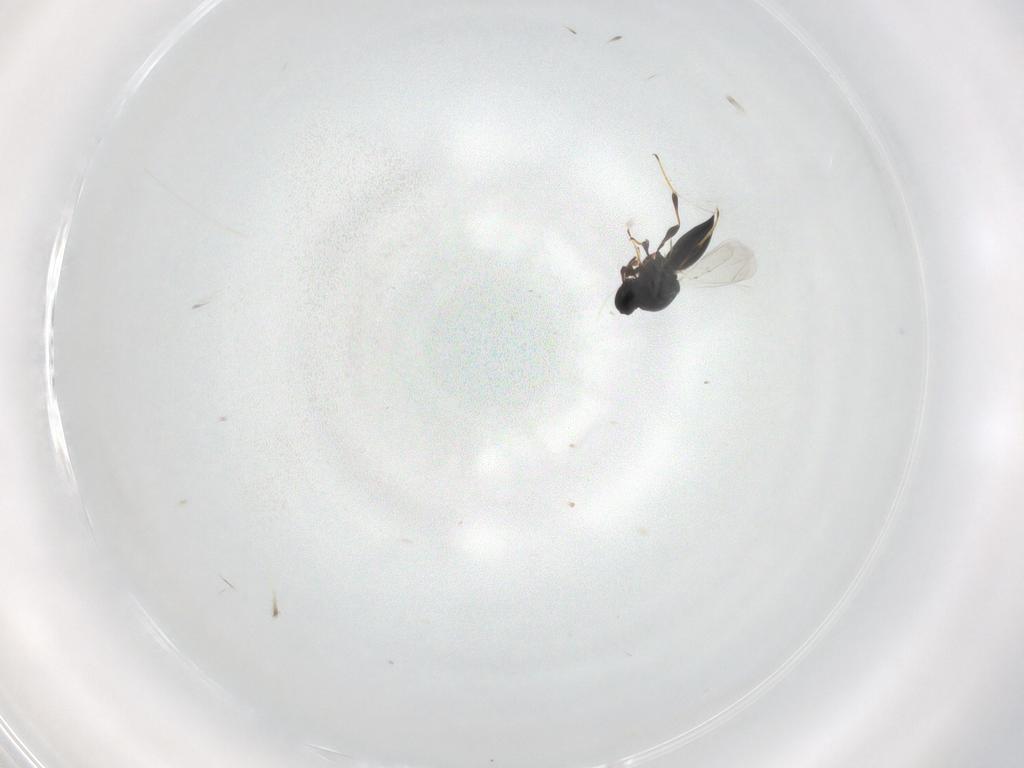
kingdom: Animalia
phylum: Arthropoda
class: Insecta
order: Hymenoptera
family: Platygastridae
